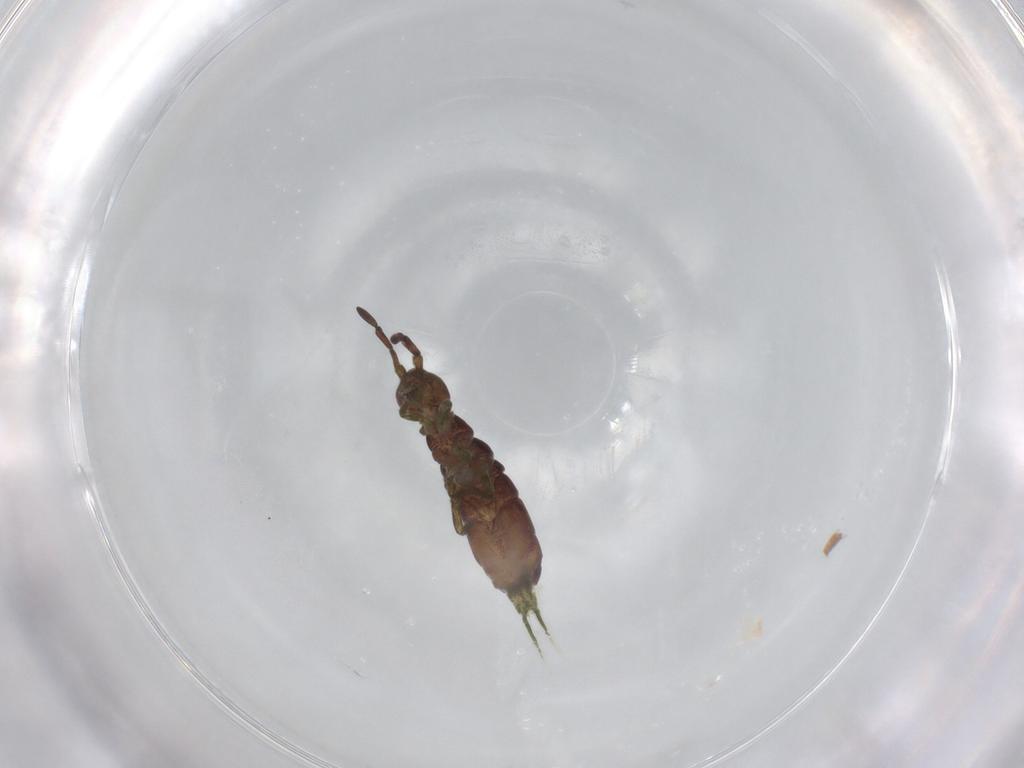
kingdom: Animalia
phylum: Arthropoda
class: Collembola
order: Entomobryomorpha
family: Isotomidae
